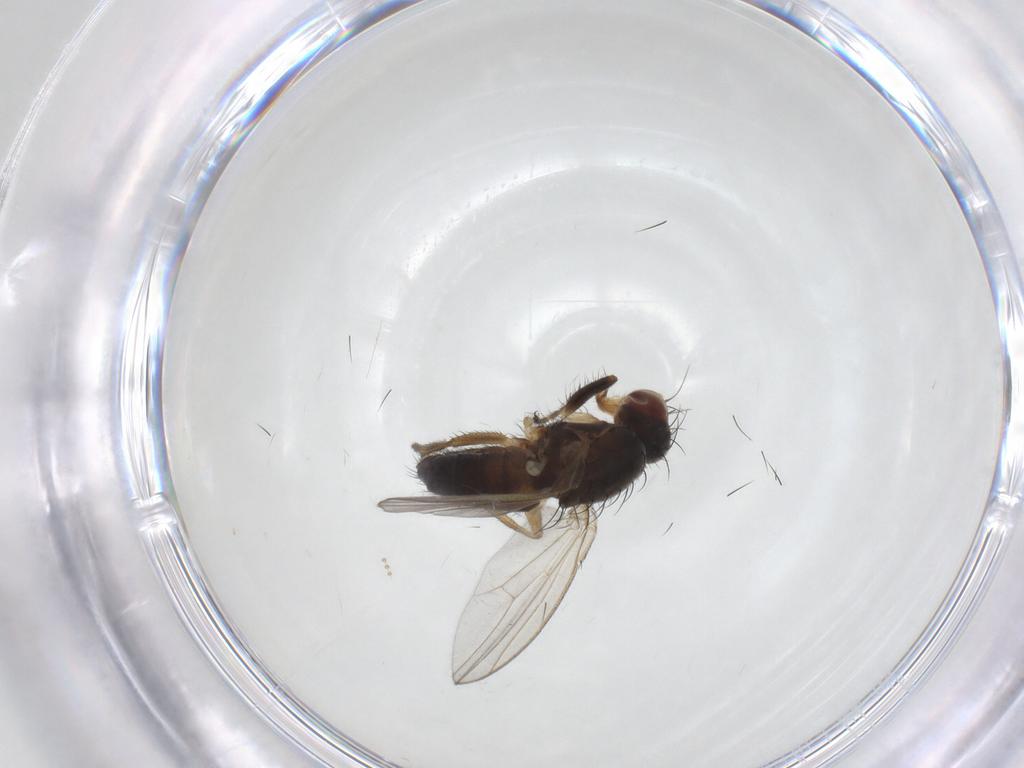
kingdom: Animalia
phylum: Arthropoda
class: Insecta
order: Diptera
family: Heleomyzidae
